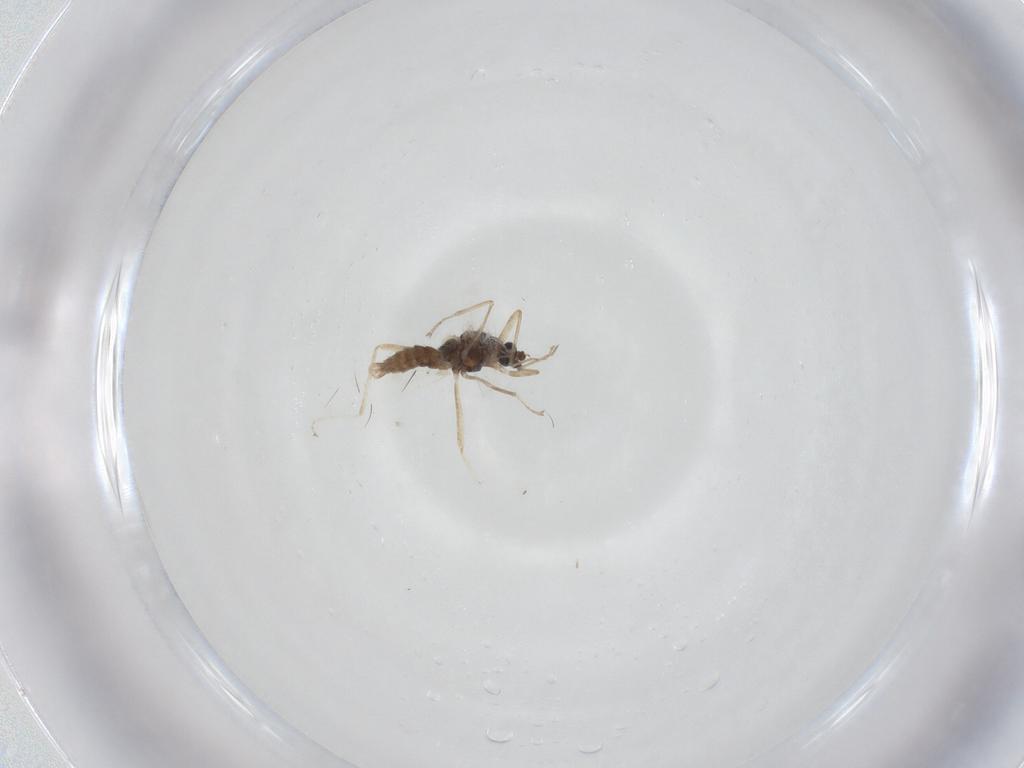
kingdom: Animalia
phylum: Arthropoda
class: Insecta
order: Diptera
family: Cecidomyiidae
